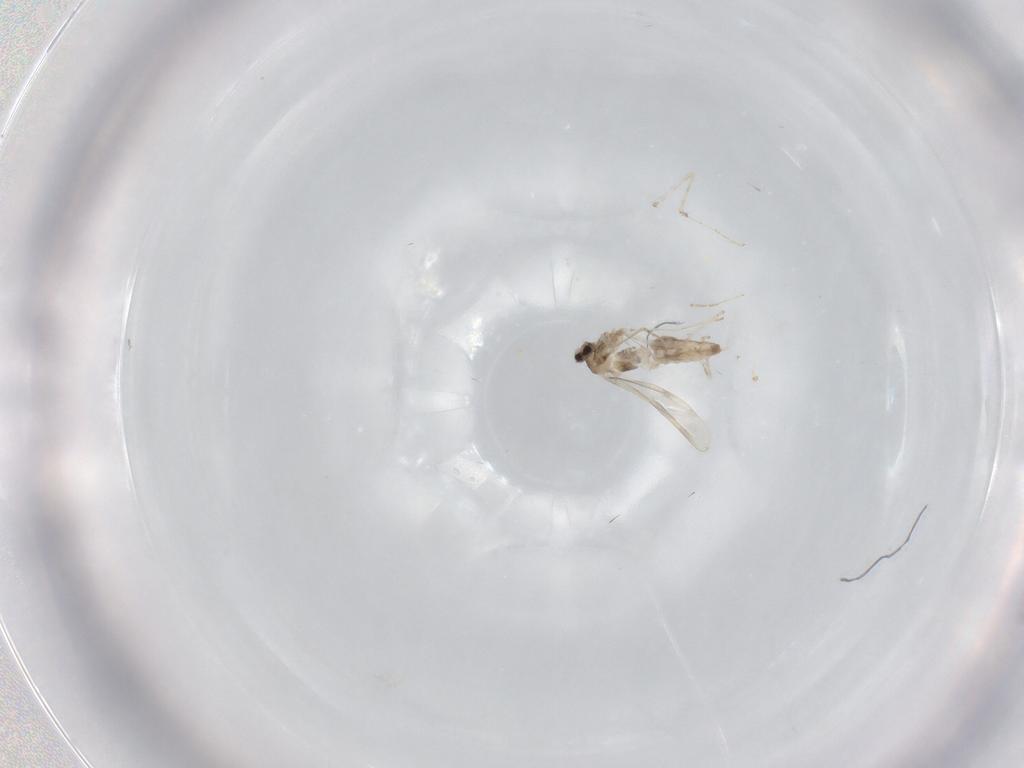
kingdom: Animalia
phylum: Arthropoda
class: Insecta
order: Diptera
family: Cecidomyiidae
